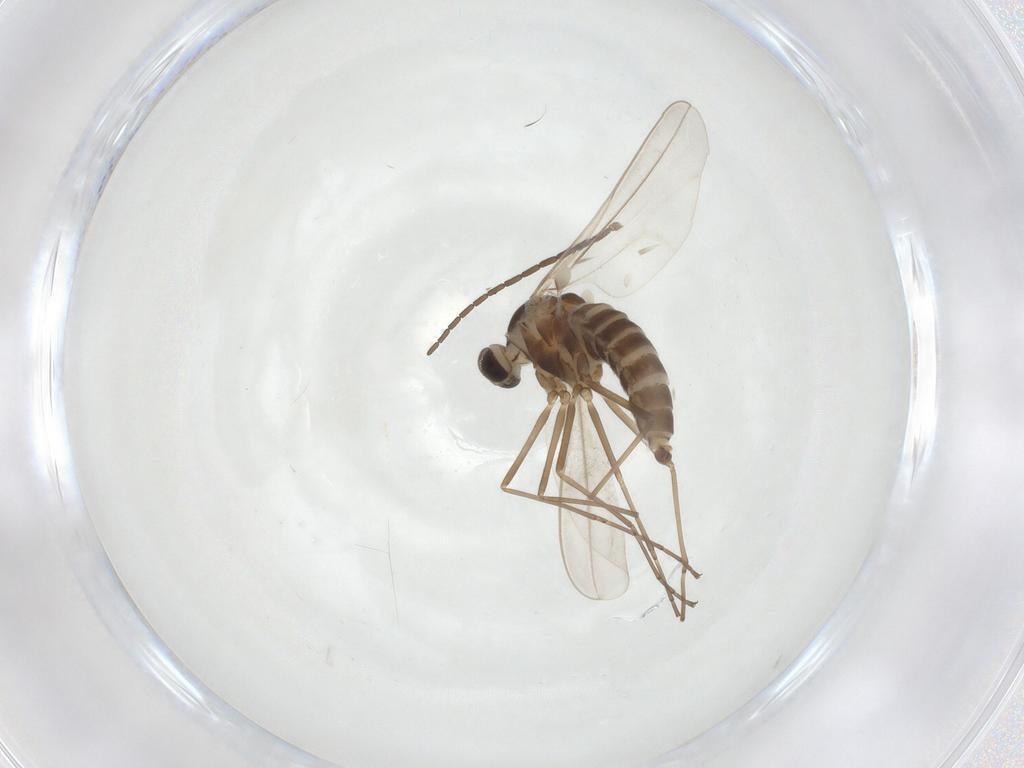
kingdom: Animalia
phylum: Arthropoda
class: Insecta
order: Diptera
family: Cecidomyiidae
